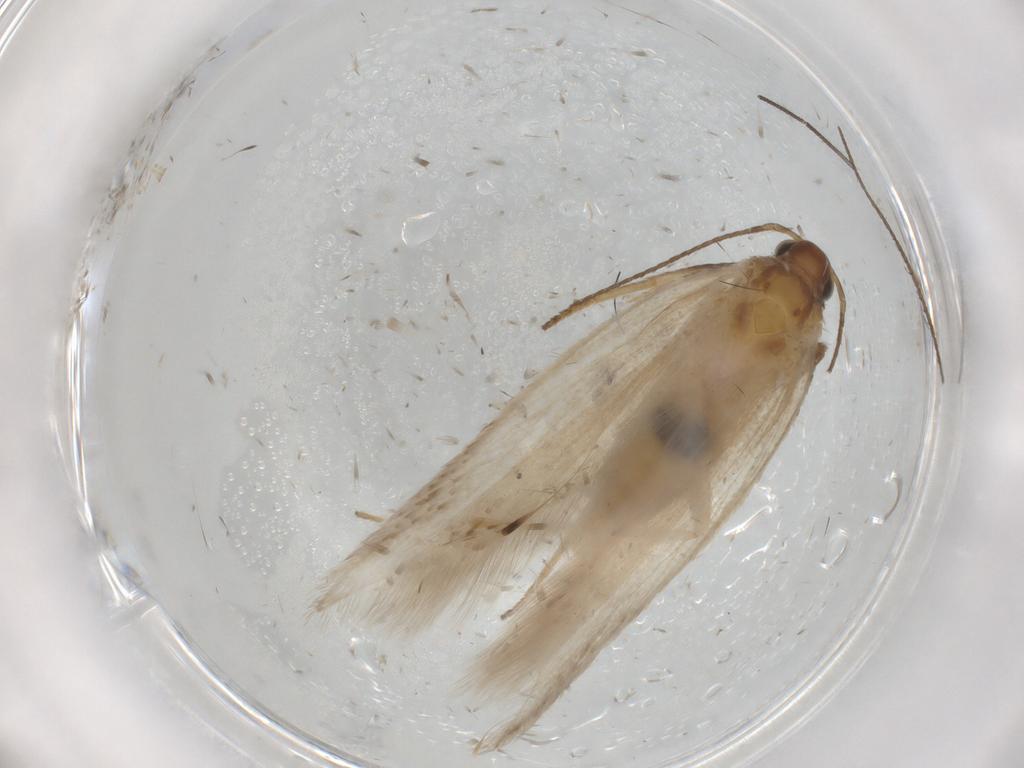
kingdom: Animalia
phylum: Arthropoda
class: Insecta
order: Lepidoptera
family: Gelechiidae
